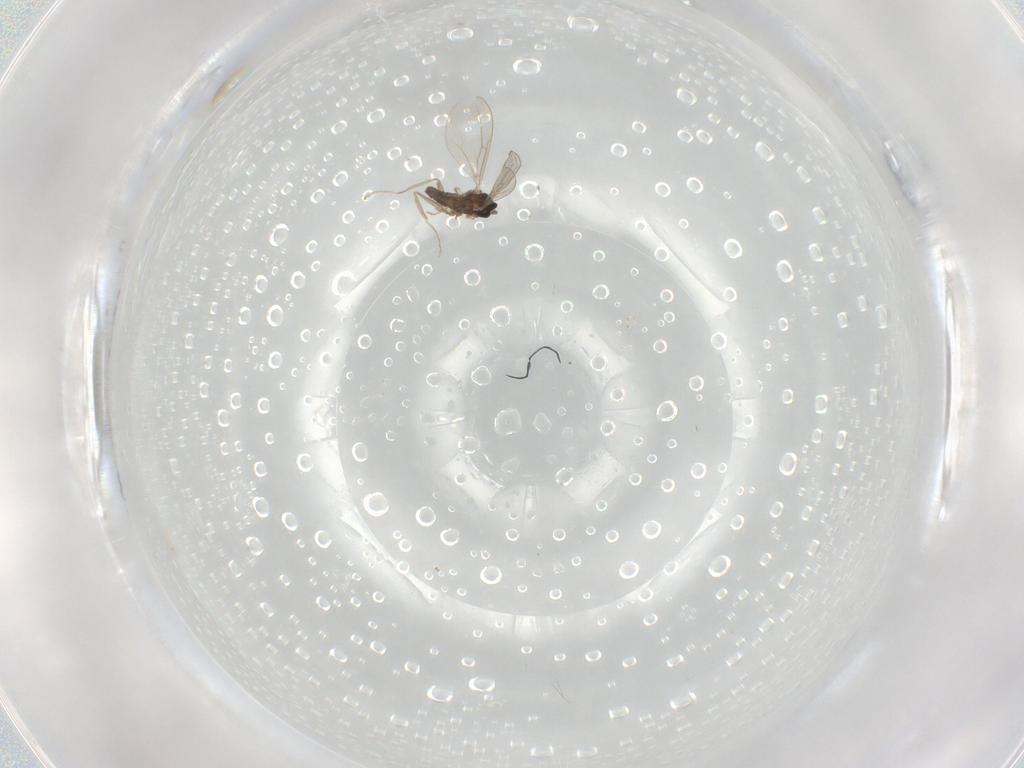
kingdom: Animalia
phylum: Arthropoda
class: Insecta
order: Diptera
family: Cecidomyiidae
